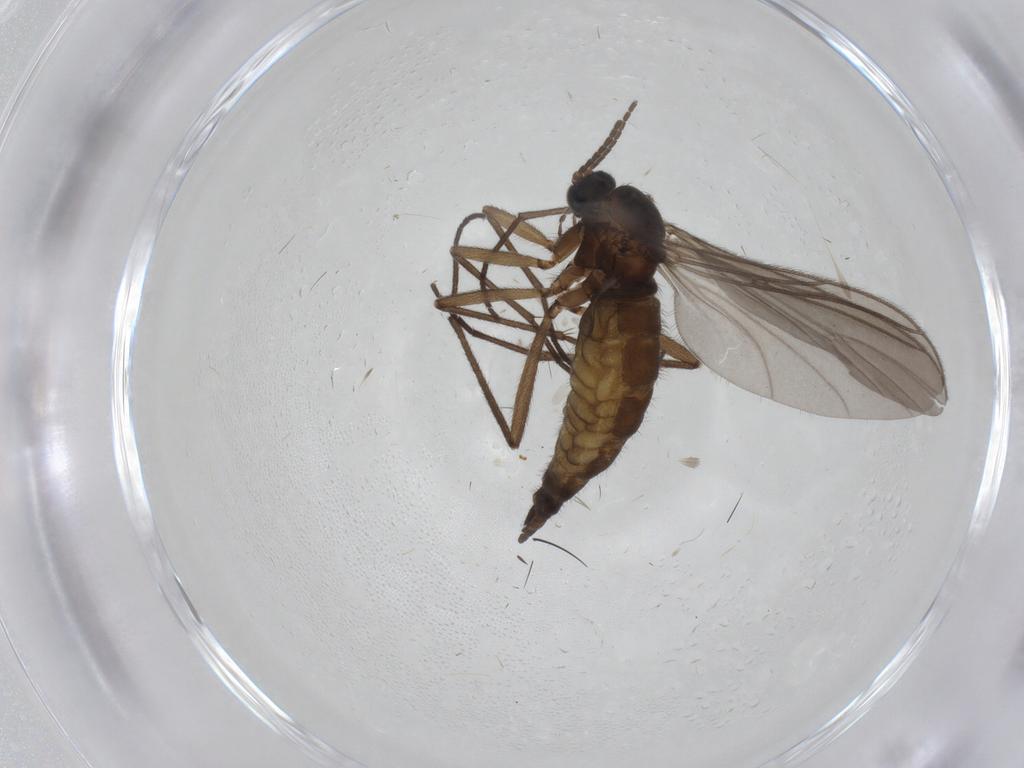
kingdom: Animalia
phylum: Arthropoda
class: Insecta
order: Diptera
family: Sciaridae
